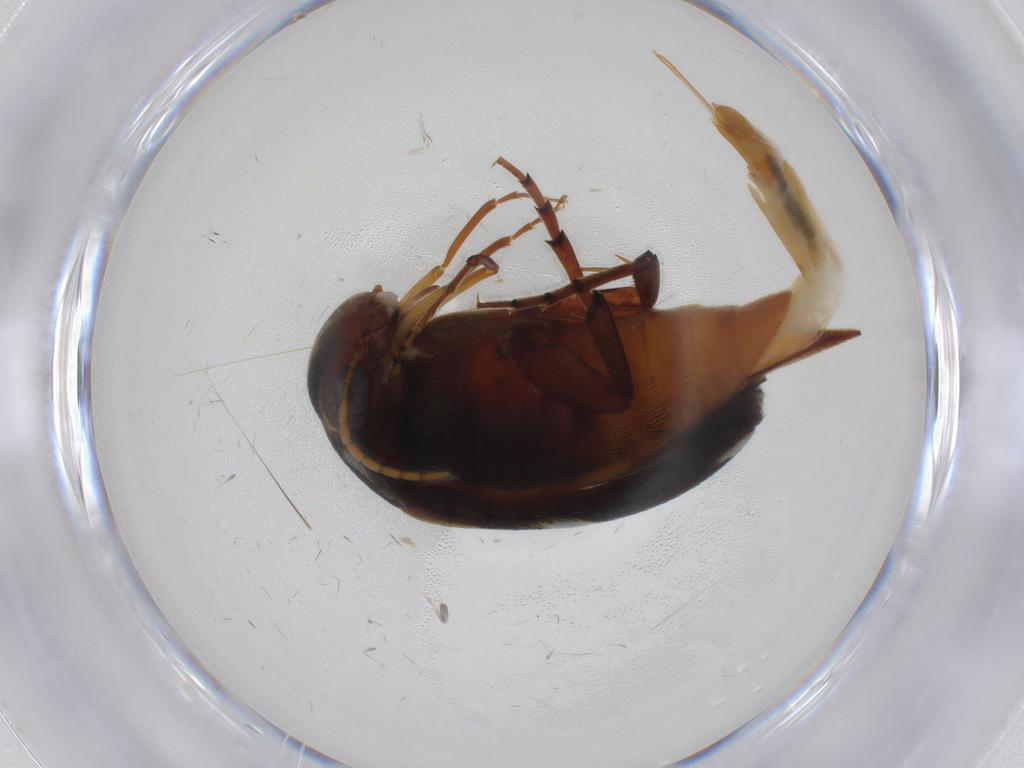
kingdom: Animalia
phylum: Arthropoda
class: Insecta
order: Coleoptera
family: Mordellidae
